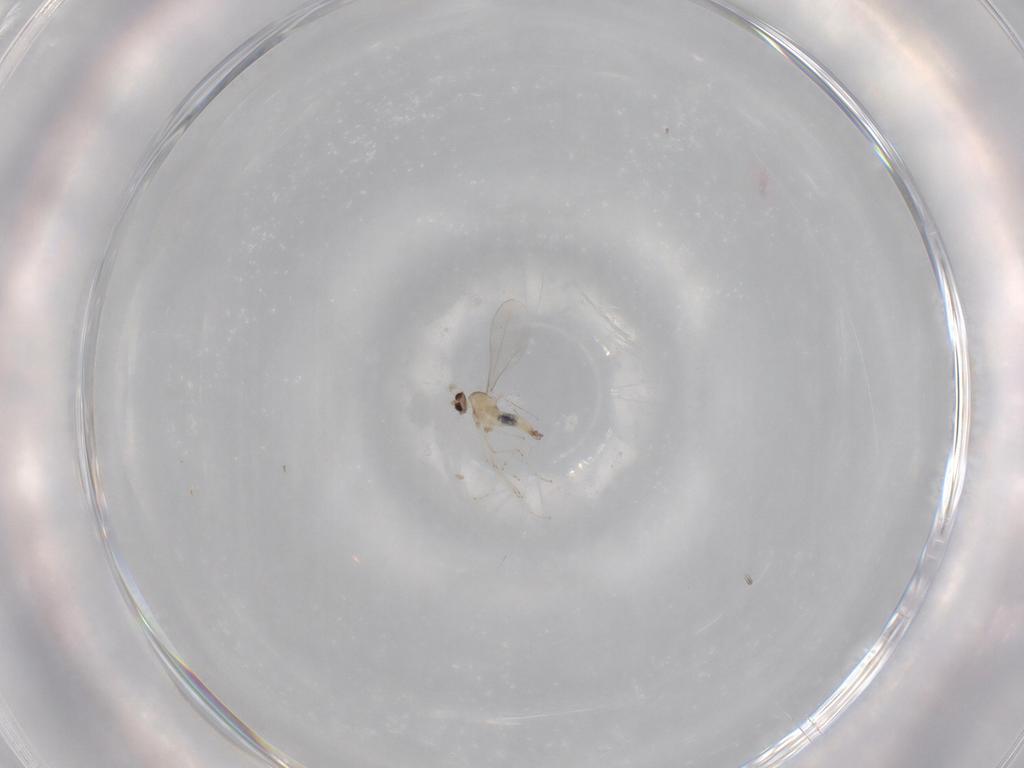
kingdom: Animalia
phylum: Arthropoda
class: Insecta
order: Diptera
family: Cecidomyiidae
